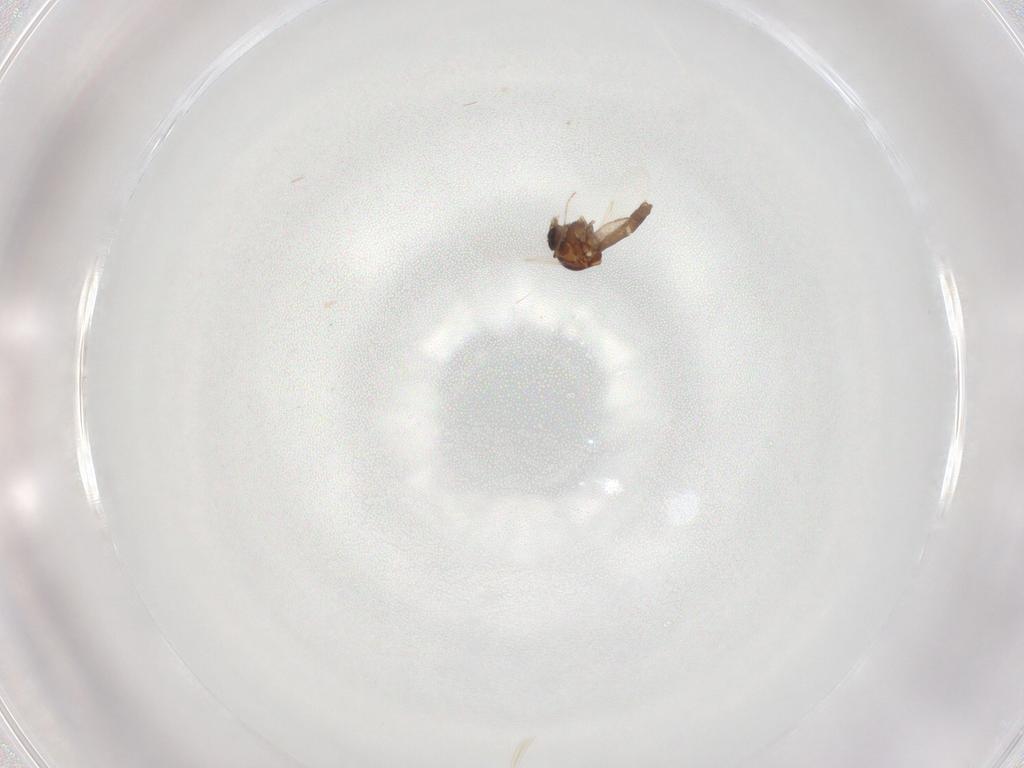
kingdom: Animalia
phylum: Arthropoda
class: Insecta
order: Diptera
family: Ceratopogonidae
